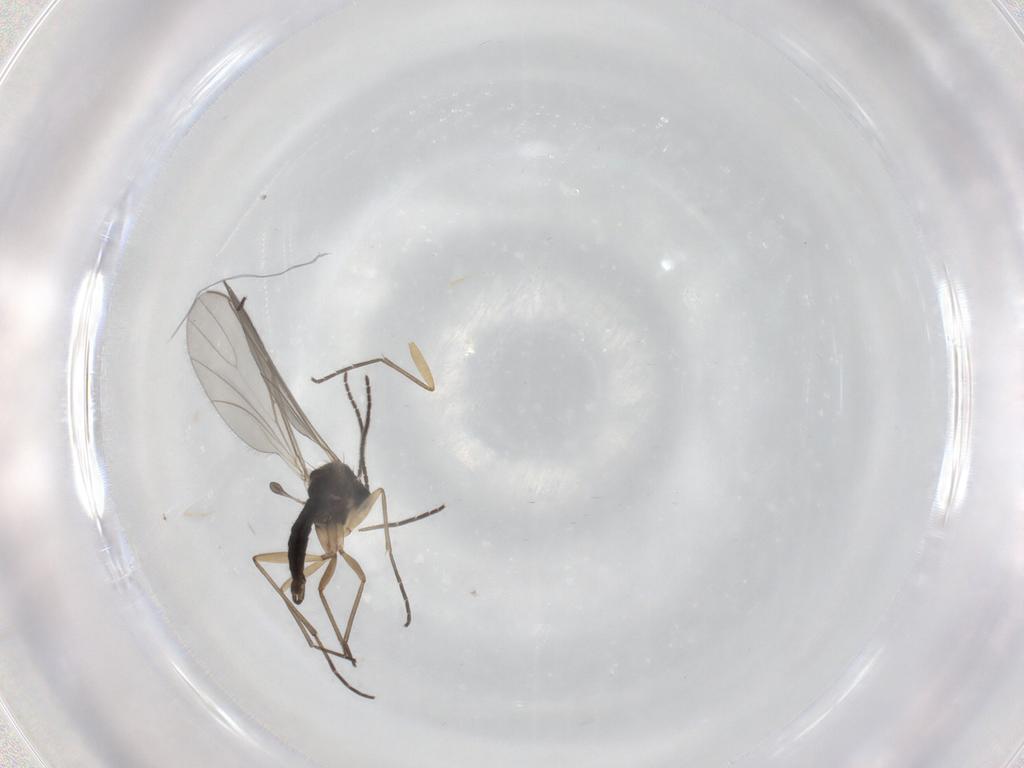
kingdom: Animalia
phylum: Arthropoda
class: Insecta
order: Diptera
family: Sciaridae
